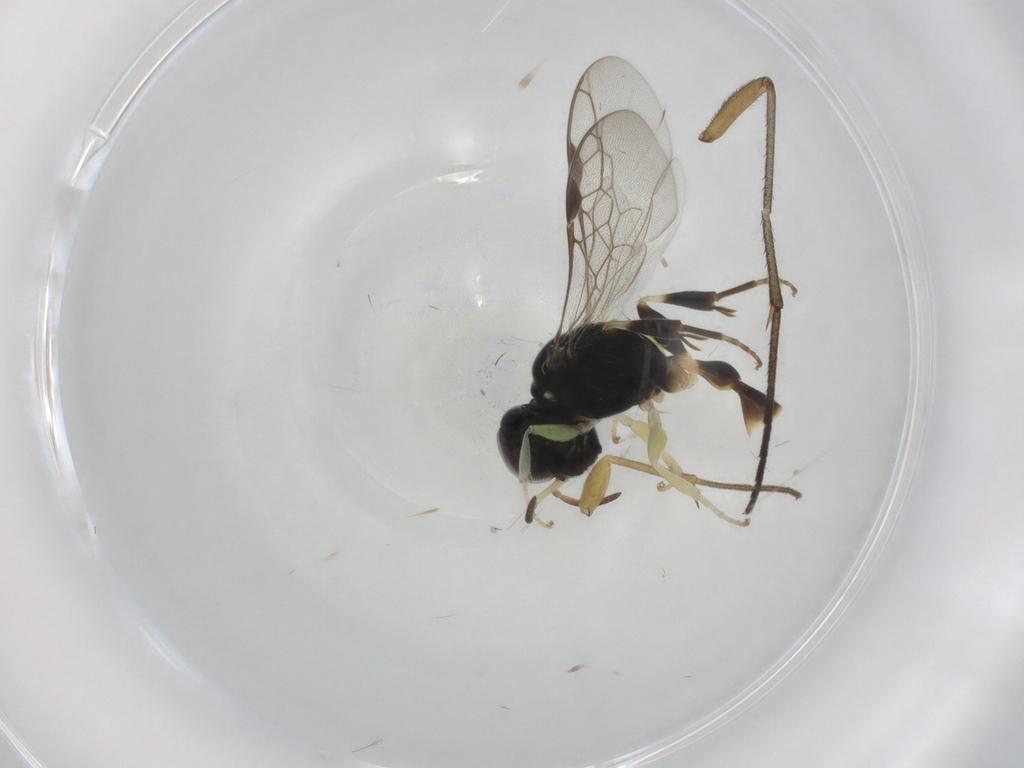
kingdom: Animalia
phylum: Arthropoda
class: Insecta
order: Hymenoptera
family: Crabronidae
